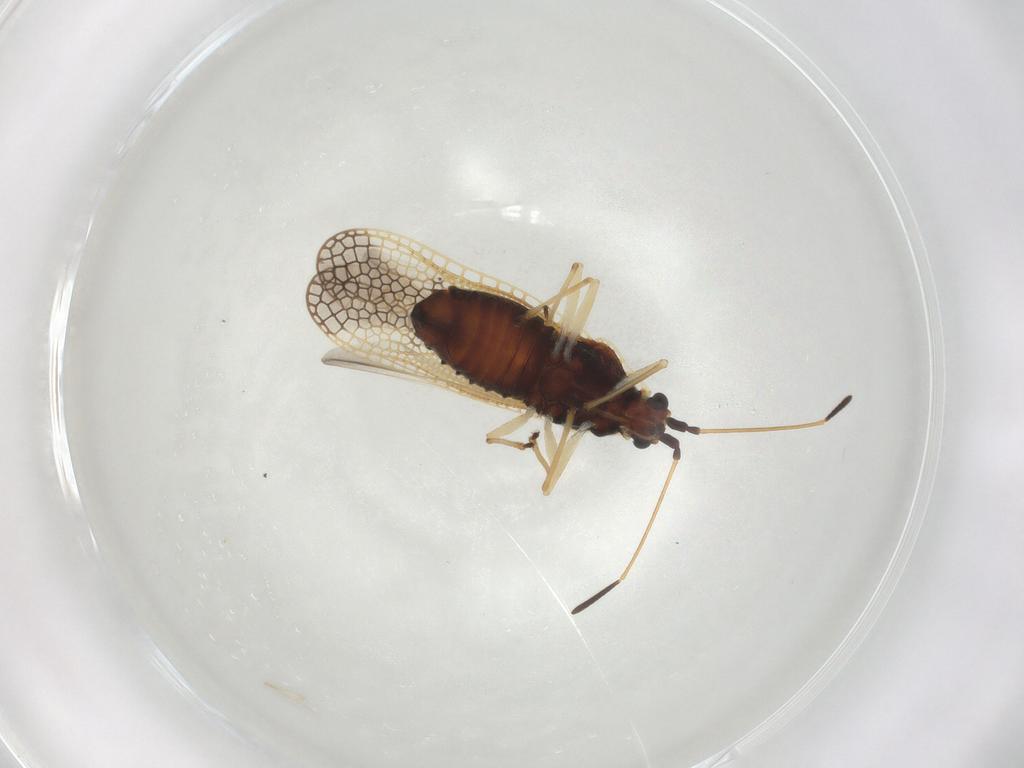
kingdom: Animalia
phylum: Arthropoda
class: Insecta
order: Hemiptera
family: Tingidae
